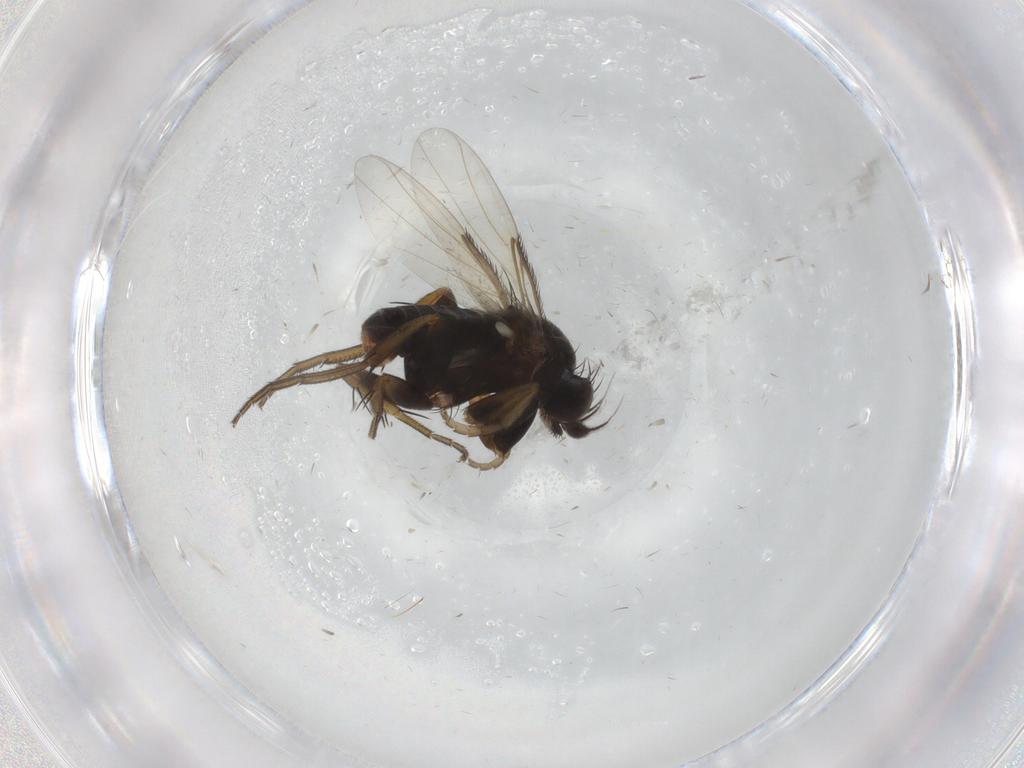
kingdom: Animalia
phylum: Arthropoda
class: Insecta
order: Diptera
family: Phoridae
